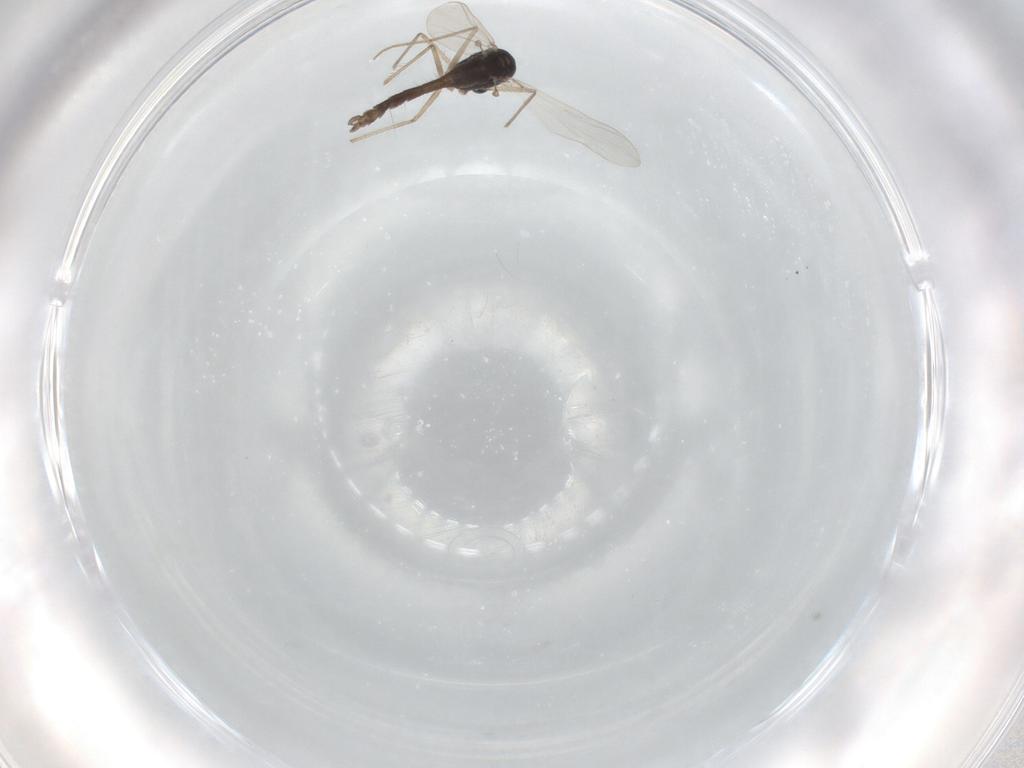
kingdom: Animalia
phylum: Arthropoda
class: Insecta
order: Diptera
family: Chironomidae
